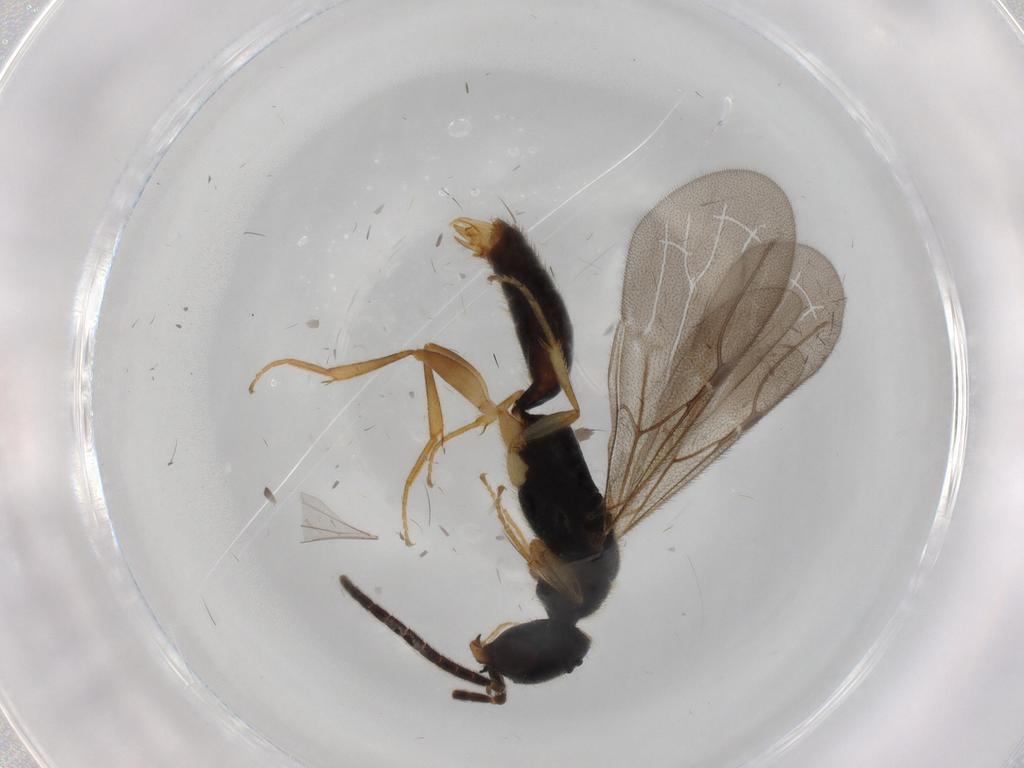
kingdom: Animalia
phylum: Arthropoda
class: Insecta
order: Hymenoptera
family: Bethylidae
